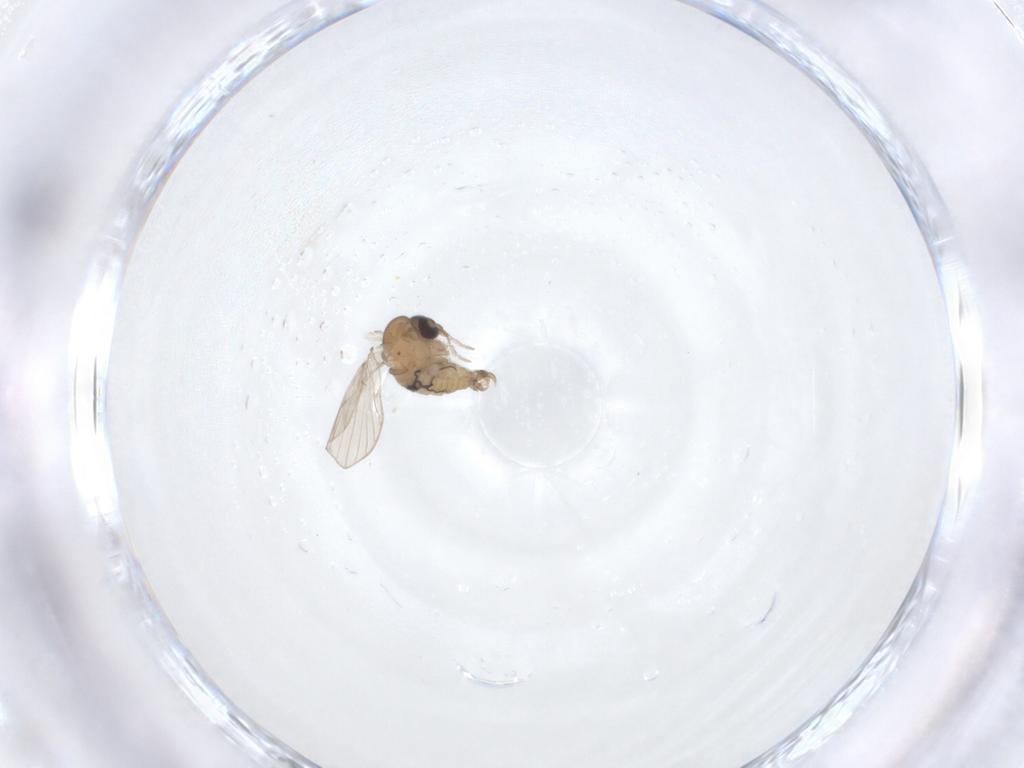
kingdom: Animalia
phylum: Arthropoda
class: Insecta
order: Diptera
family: Psychodidae
